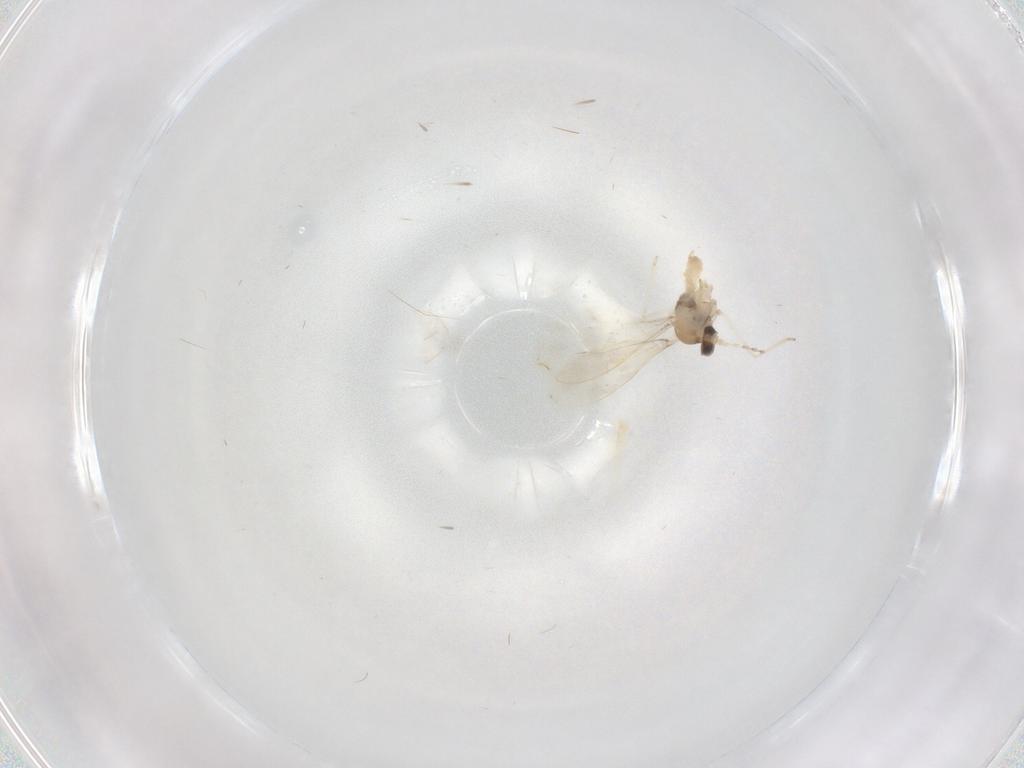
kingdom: Animalia
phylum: Arthropoda
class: Insecta
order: Diptera
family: Cecidomyiidae
